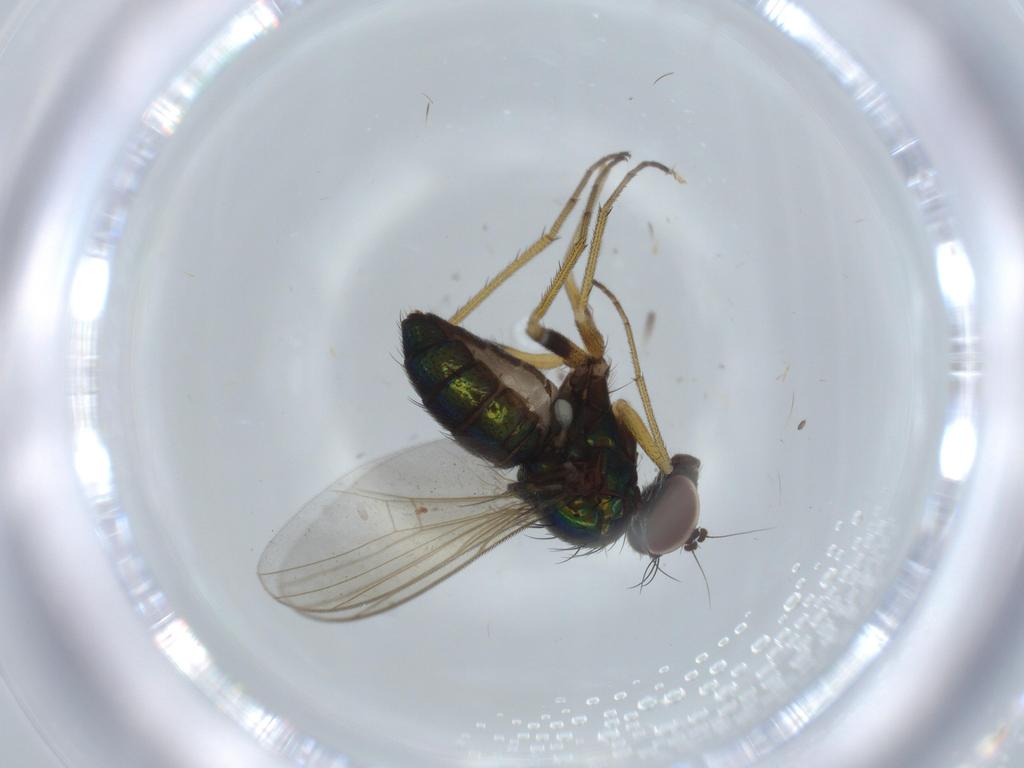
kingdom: Animalia
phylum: Arthropoda
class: Insecta
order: Diptera
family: Dolichopodidae
